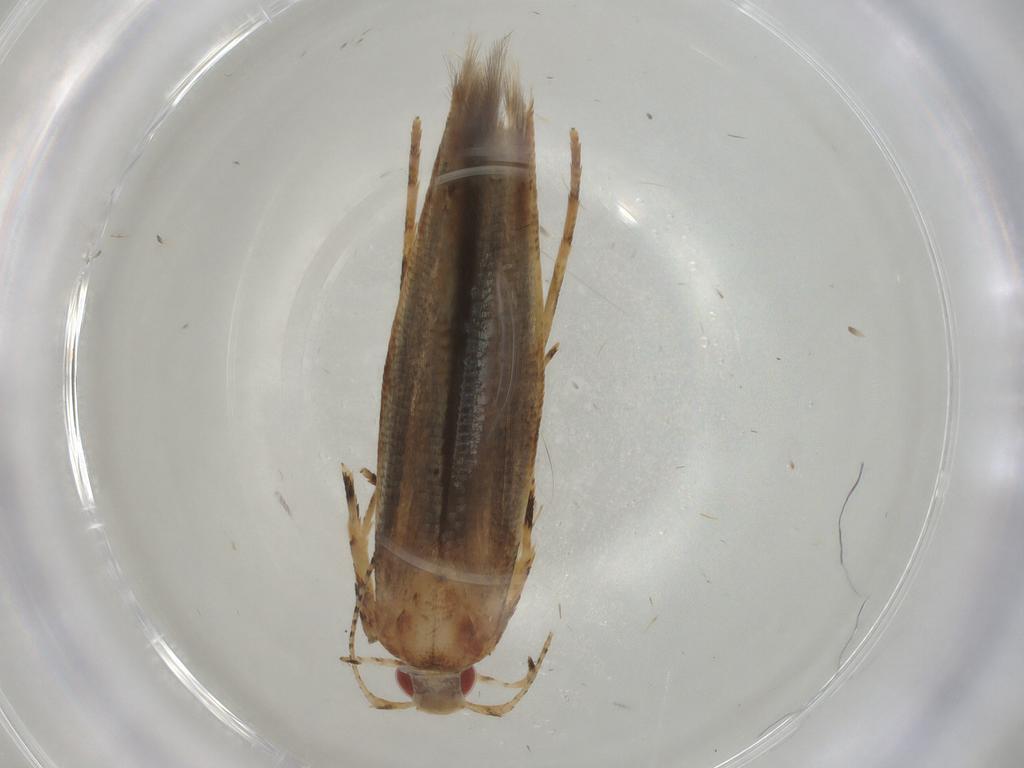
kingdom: Animalia
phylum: Arthropoda
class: Insecta
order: Lepidoptera
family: Cosmopterigidae
